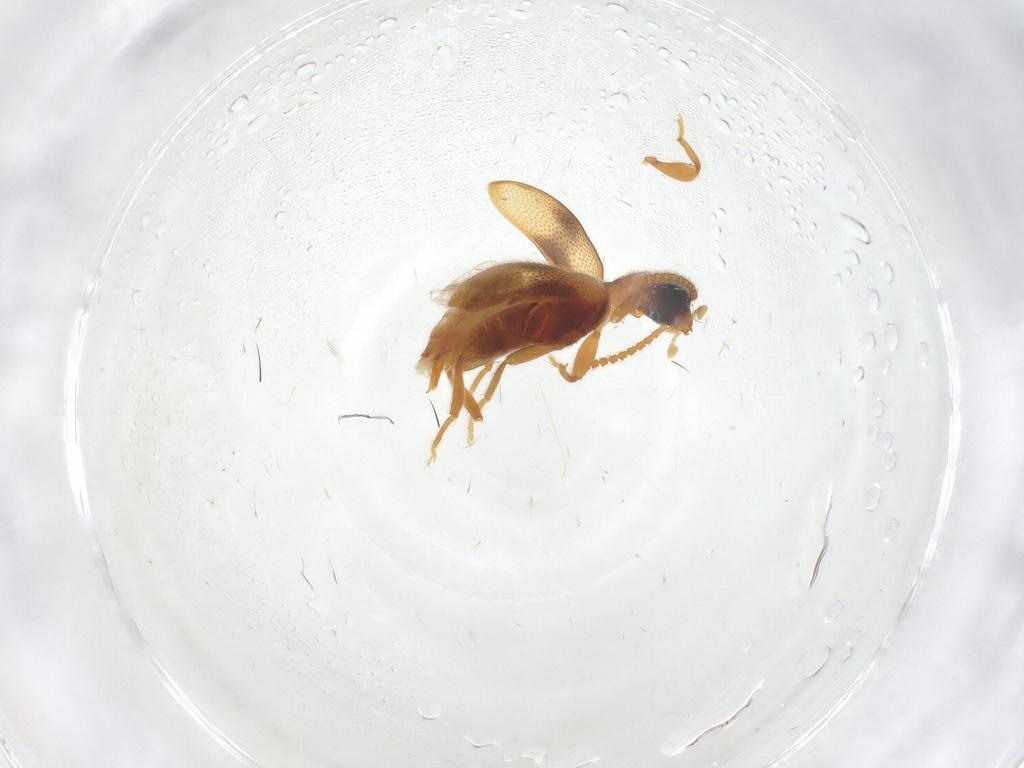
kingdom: Animalia
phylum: Arthropoda
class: Insecta
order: Coleoptera
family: Aderidae
